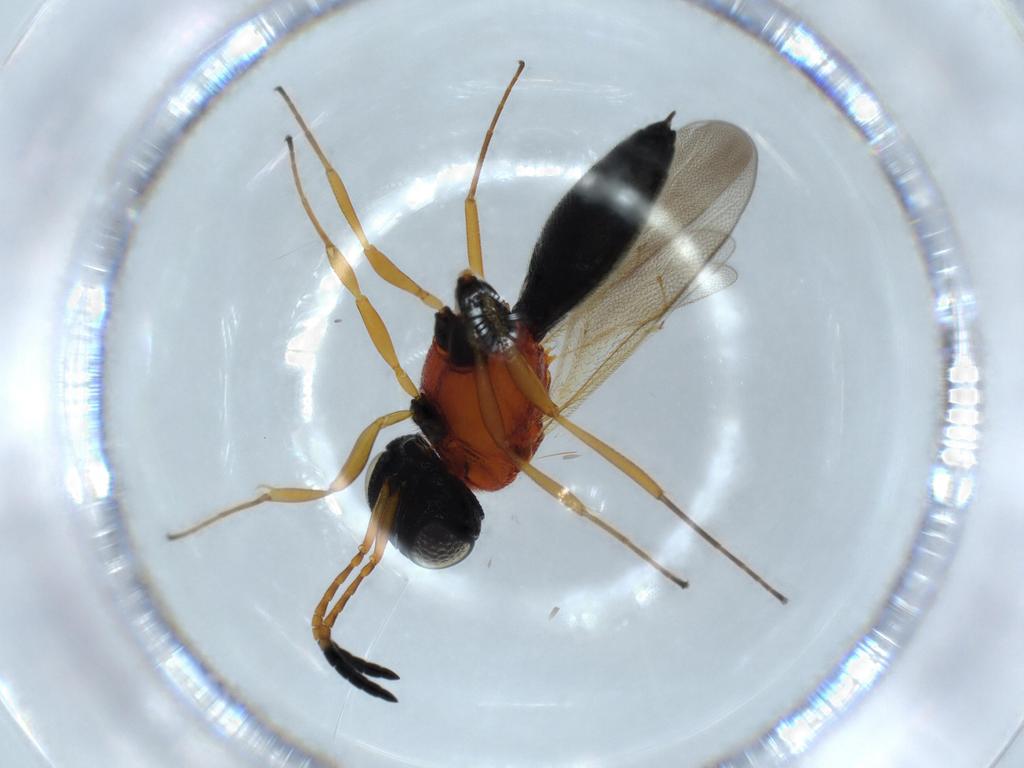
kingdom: Animalia
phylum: Arthropoda
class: Insecta
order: Hymenoptera
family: Scelionidae
